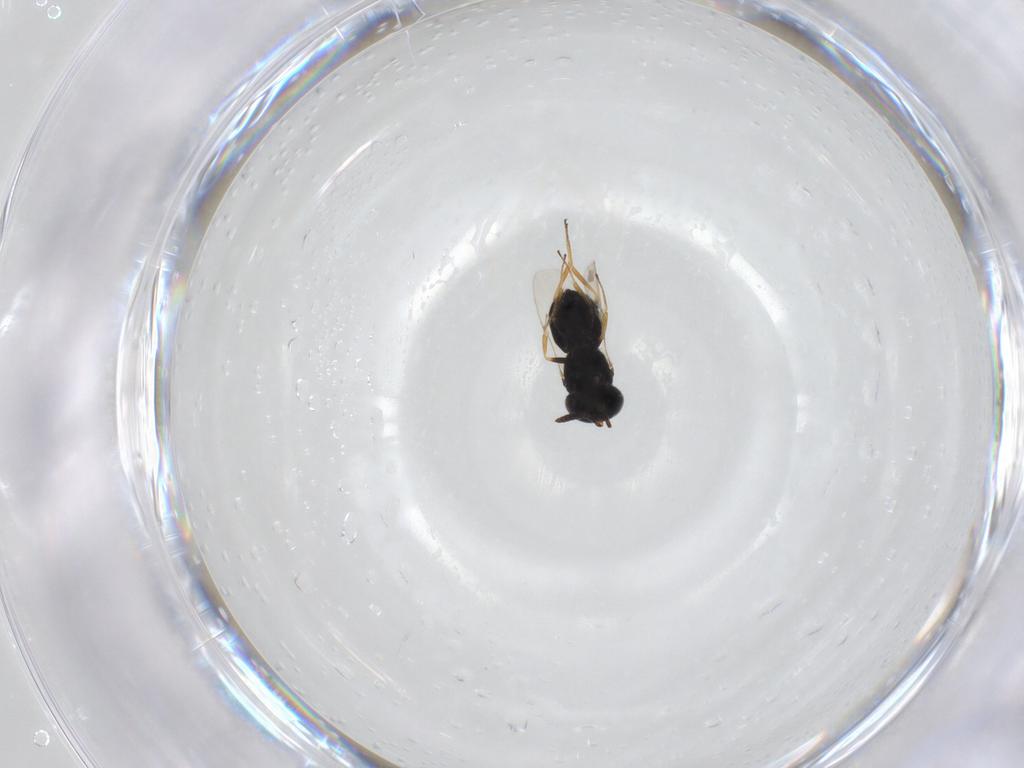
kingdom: Animalia
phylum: Arthropoda
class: Insecta
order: Hymenoptera
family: Scelionidae
